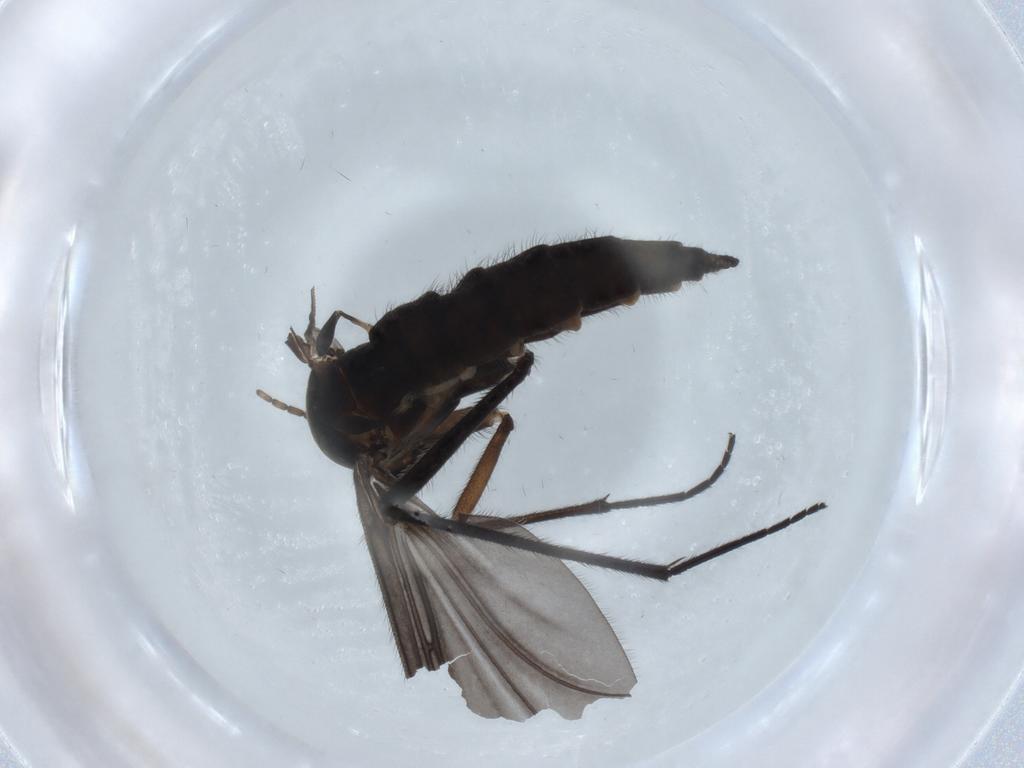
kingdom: Animalia
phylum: Arthropoda
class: Insecta
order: Diptera
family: Sciaridae
